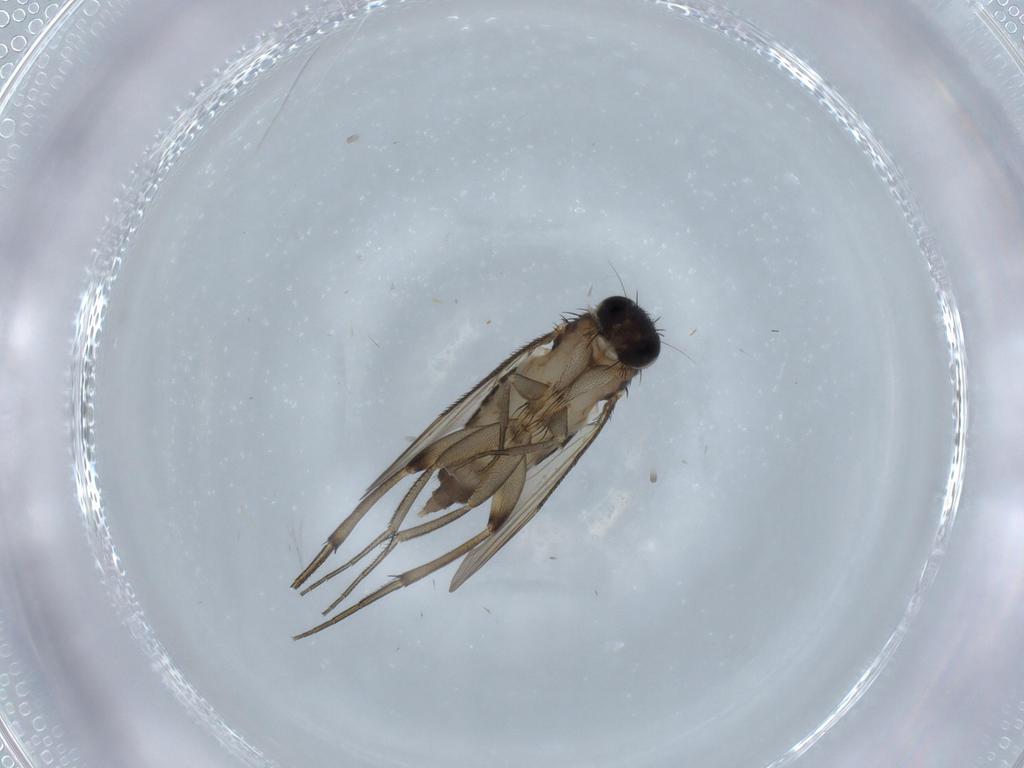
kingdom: Animalia
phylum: Arthropoda
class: Insecta
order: Diptera
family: Phoridae
